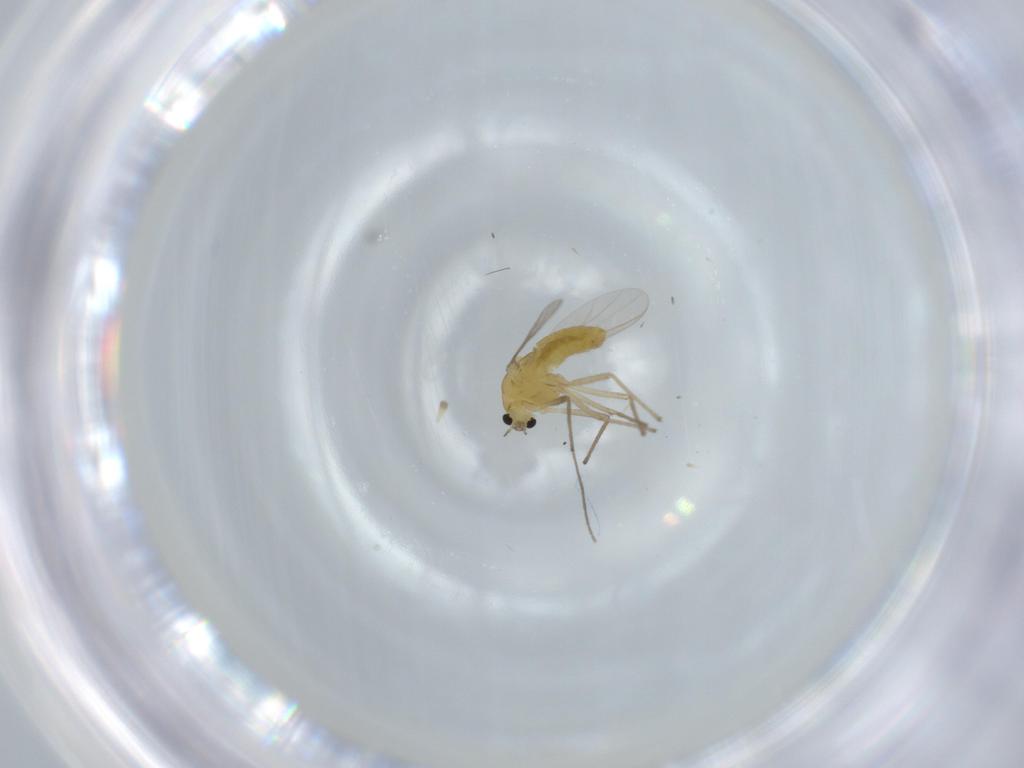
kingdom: Animalia
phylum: Arthropoda
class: Insecta
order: Diptera
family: Chironomidae
